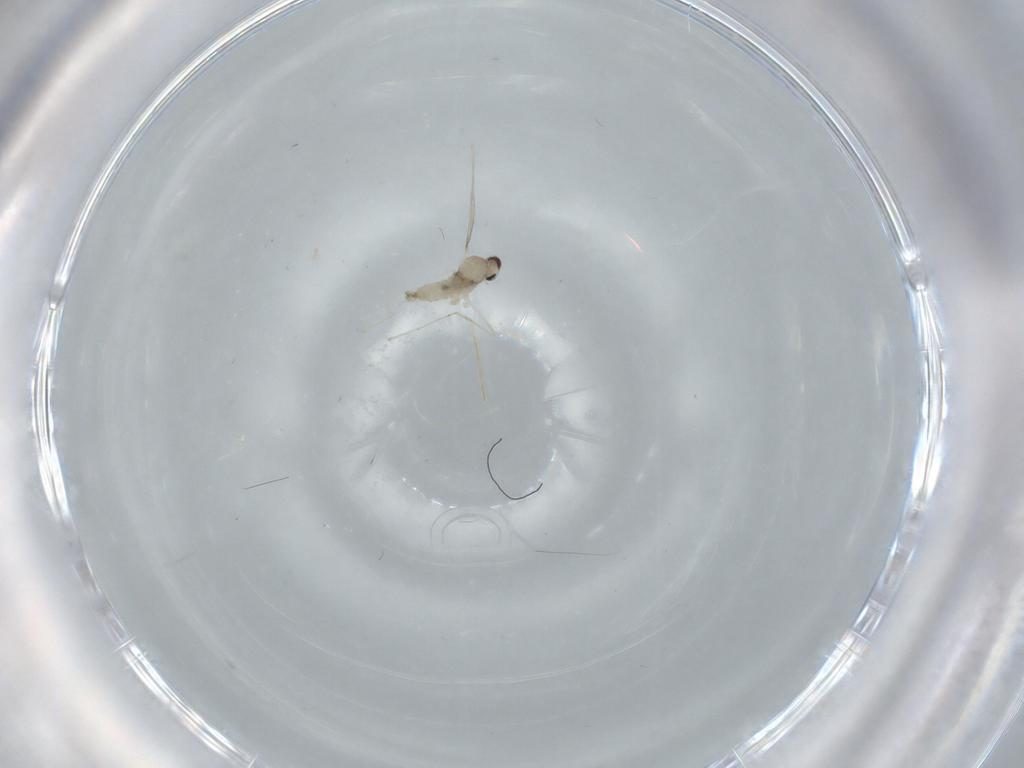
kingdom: Animalia
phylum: Arthropoda
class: Insecta
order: Diptera
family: Cecidomyiidae
